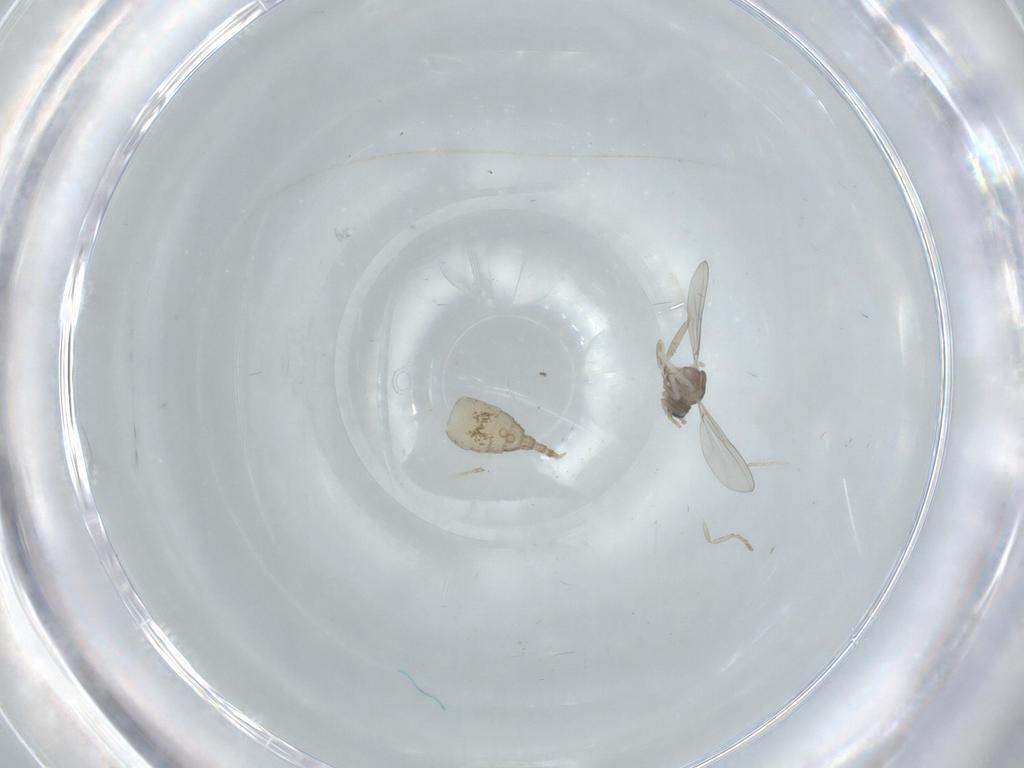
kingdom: Animalia
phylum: Arthropoda
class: Insecta
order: Diptera
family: Cecidomyiidae
